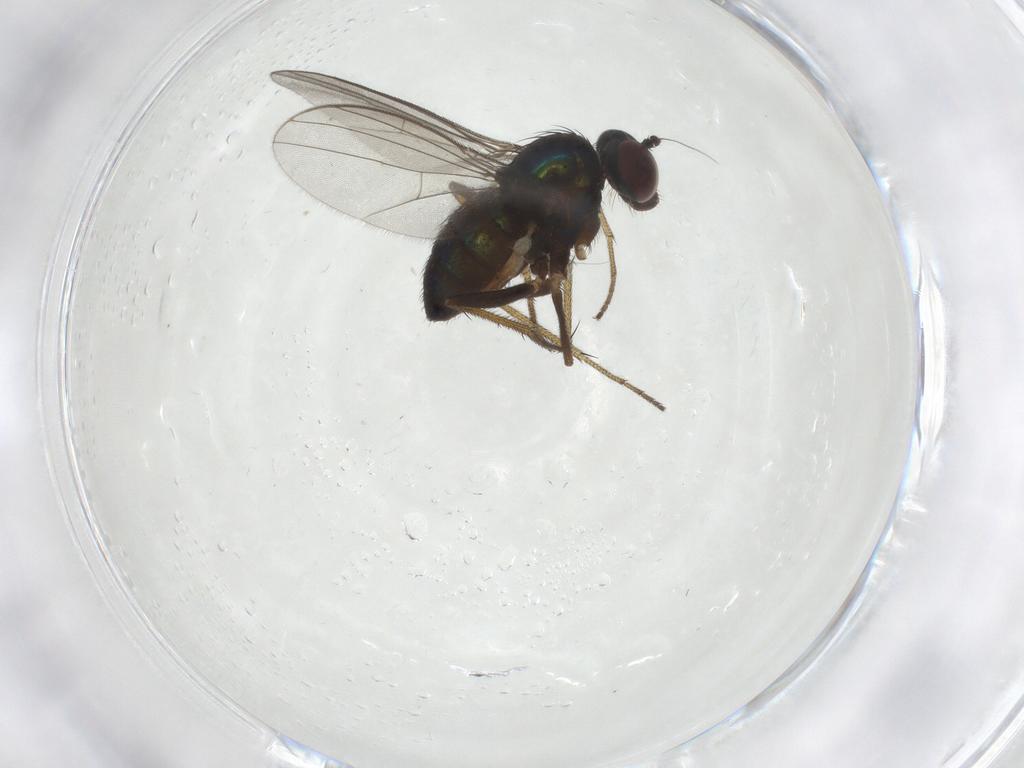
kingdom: Animalia
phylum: Arthropoda
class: Insecta
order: Diptera
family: Dolichopodidae
